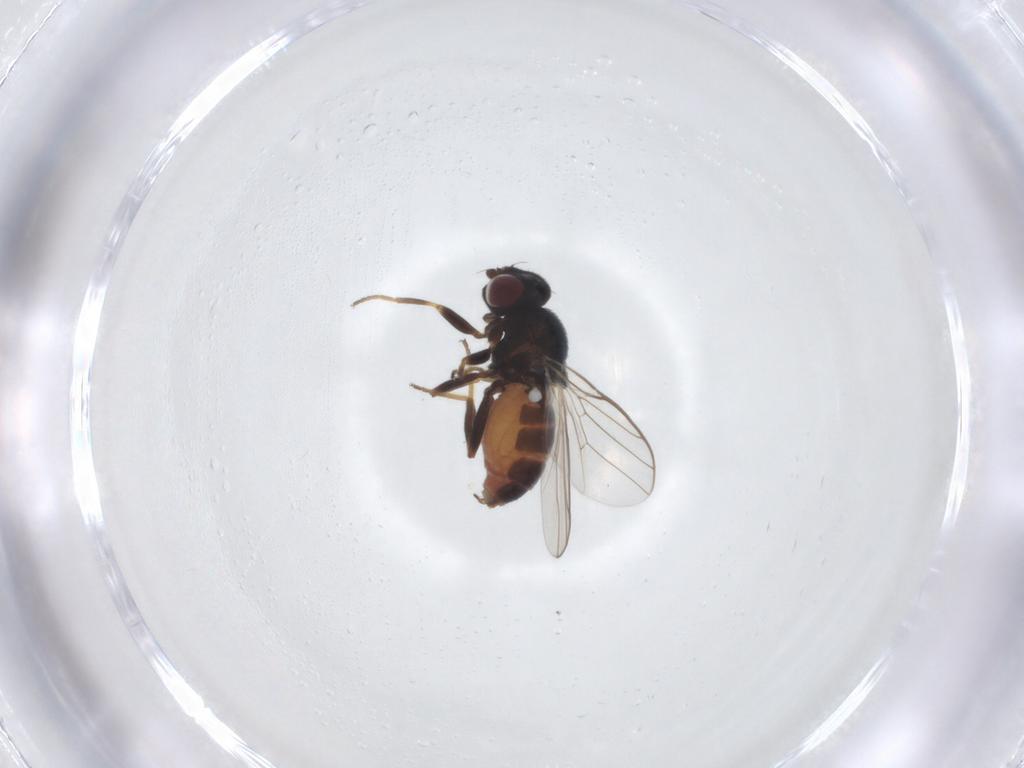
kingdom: Animalia
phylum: Arthropoda
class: Insecta
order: Diptera
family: Chloropidae
